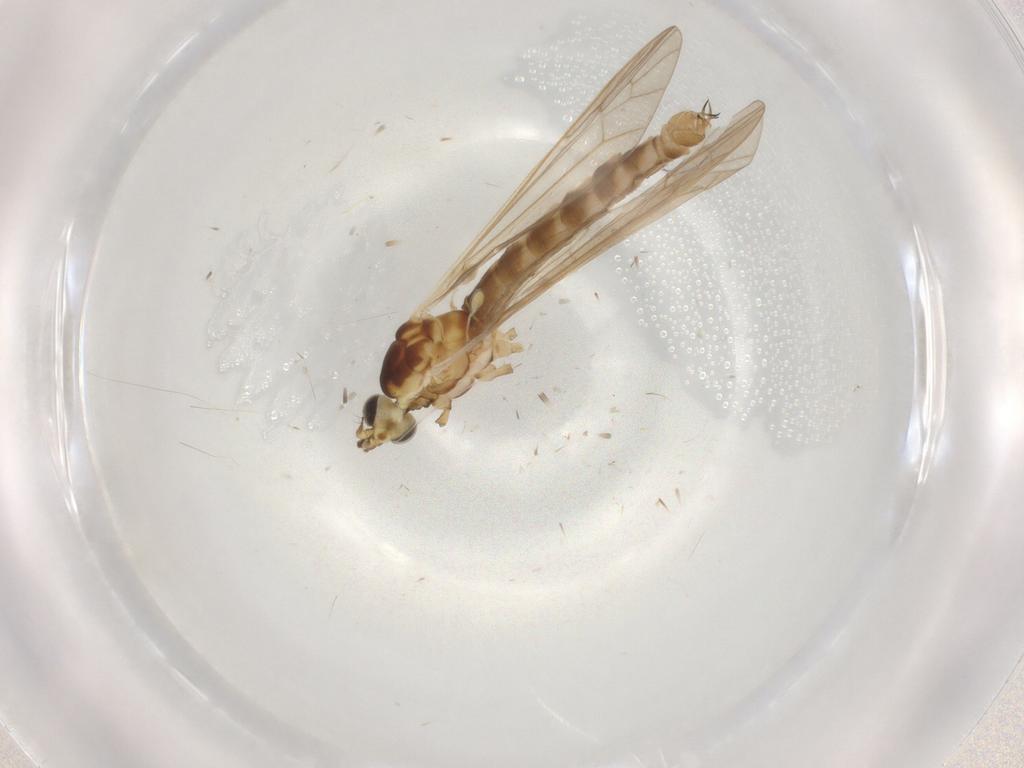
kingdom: Animalia
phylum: Arthropoda
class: Insecta
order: Diptera
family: Limoniidae
